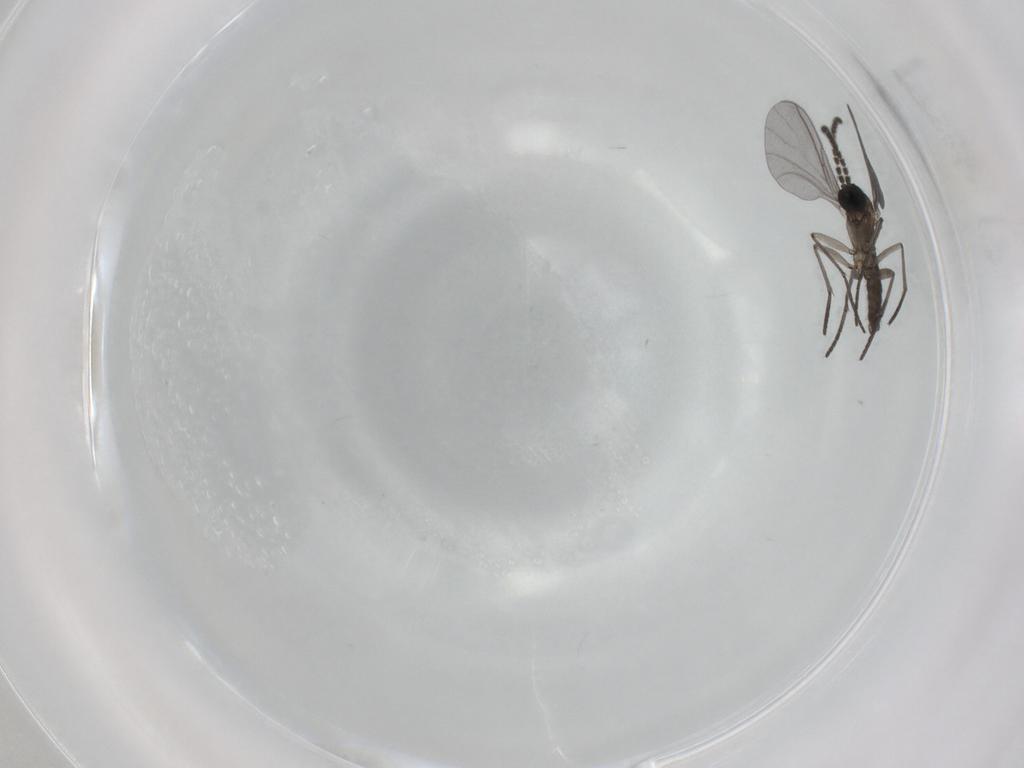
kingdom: Animalia
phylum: Arthropoda
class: Insecta
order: Diptera
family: Chironomidae
